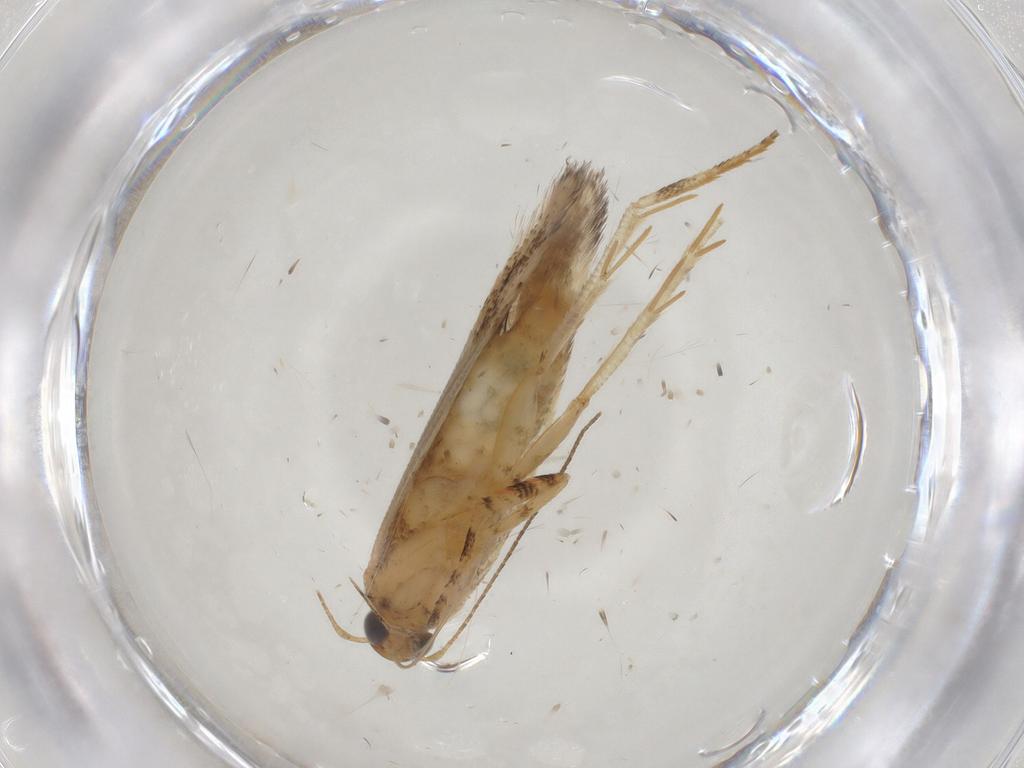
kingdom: Animalia
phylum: Arthropoda
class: Insecta
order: Lepidoptera
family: Gelechiidae
